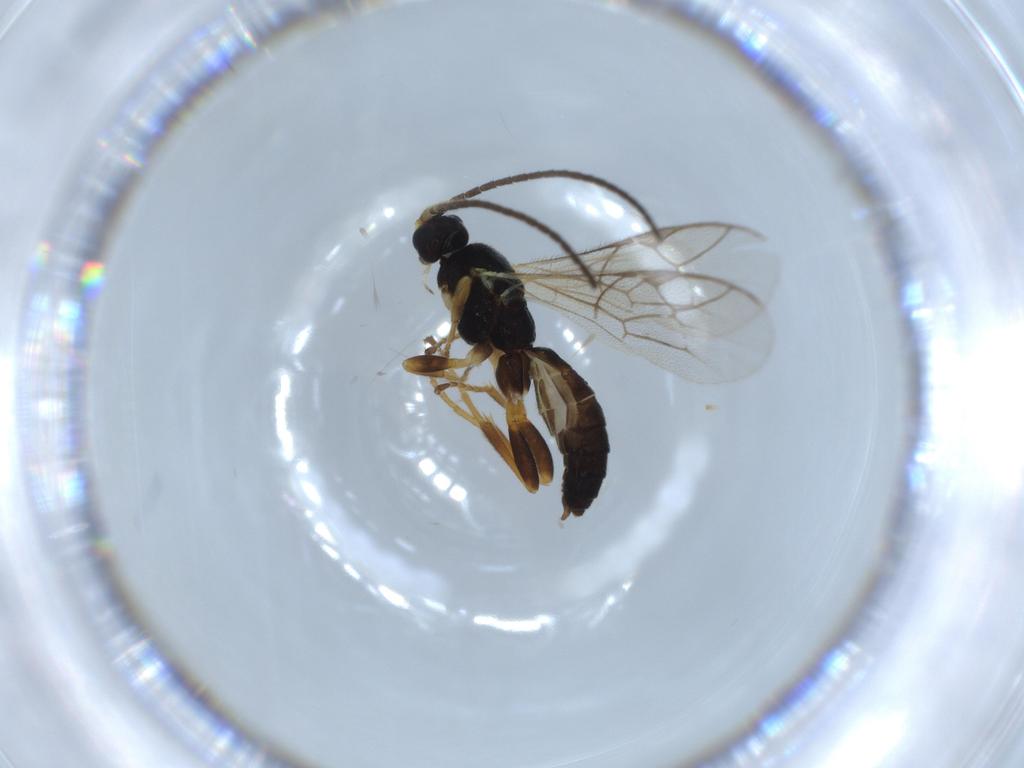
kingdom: Animalia
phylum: Arthropoda
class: Insecta
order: Hymenoptera
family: Ichneumonidae
